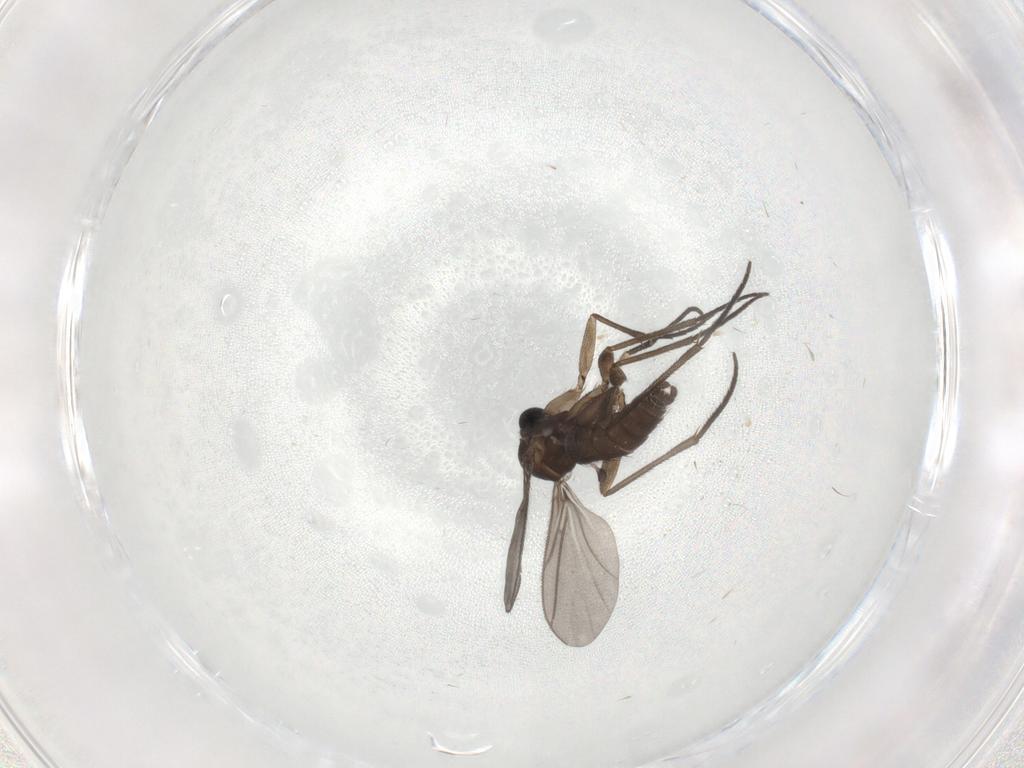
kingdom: Animalia
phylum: Arthropoda
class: Insecta
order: Diptera
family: Sciaridae
